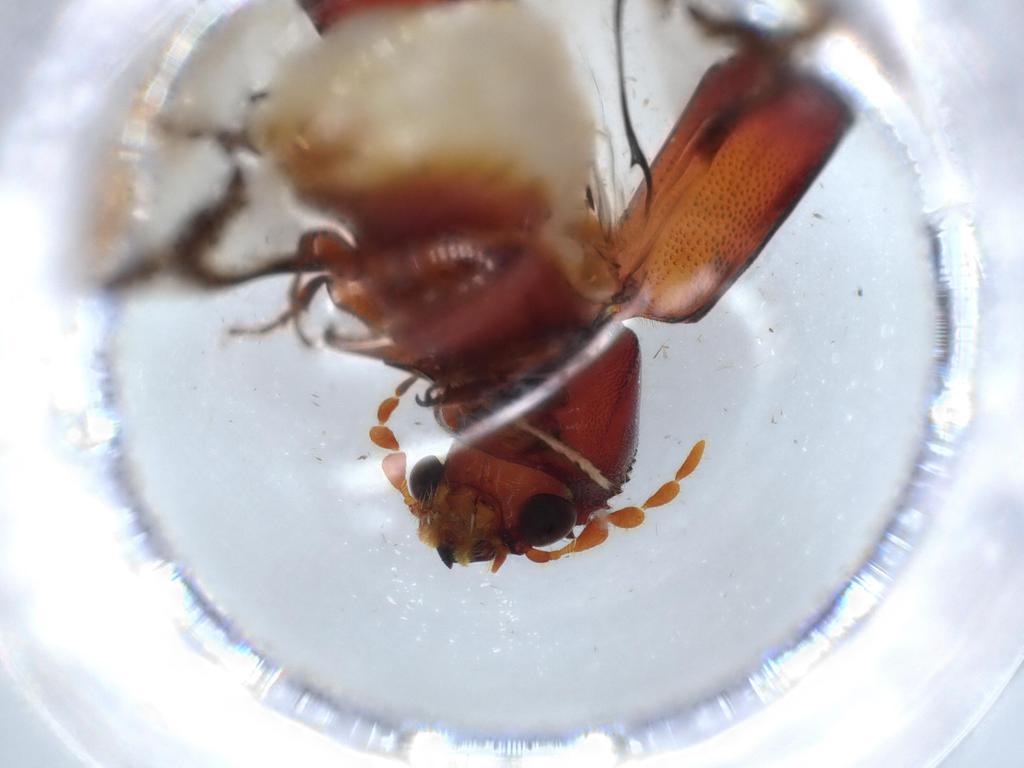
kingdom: Animalia
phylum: Arthropoda
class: Insecta
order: Coleoptera
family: Bostrichidae
